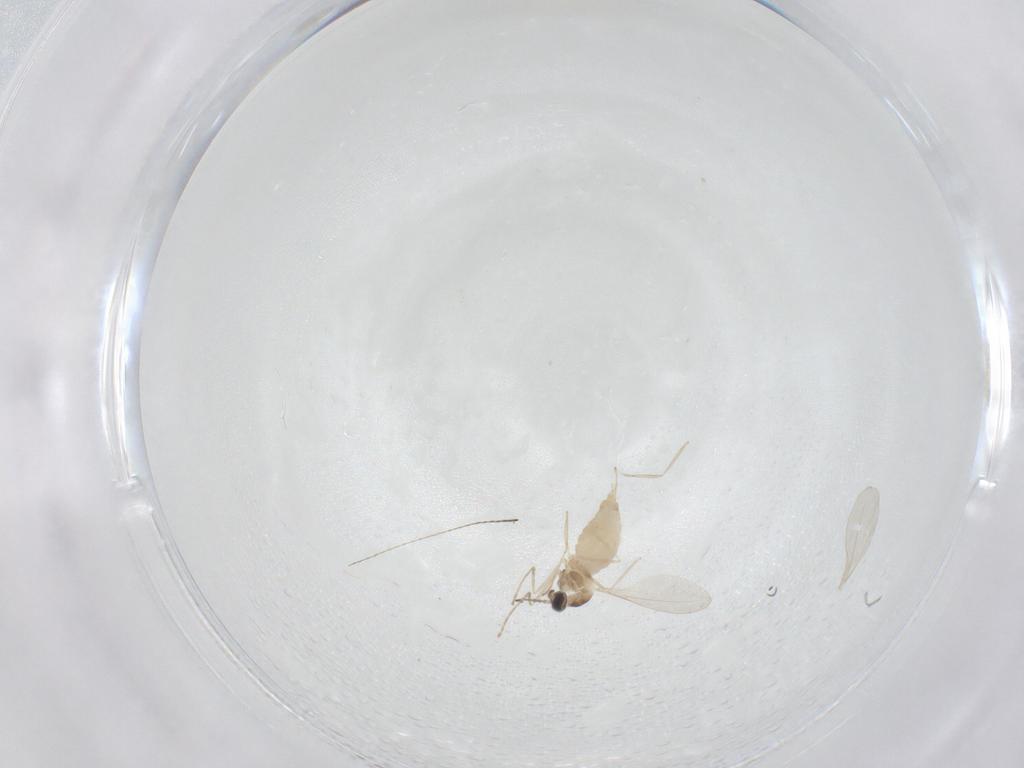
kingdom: Animalia
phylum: Arthropoda
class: Insecta
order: Diptera
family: Cecidomyiidae
